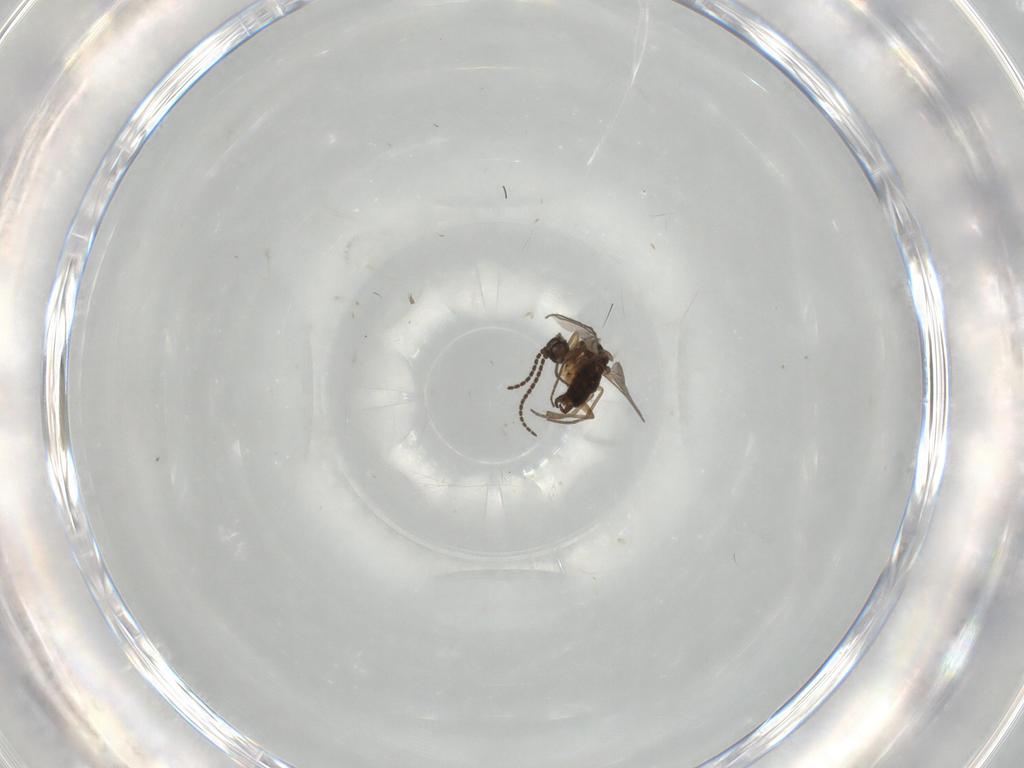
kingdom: Animalia
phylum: Arthropoda
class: Insecta
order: Diptera
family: Sciaridae
